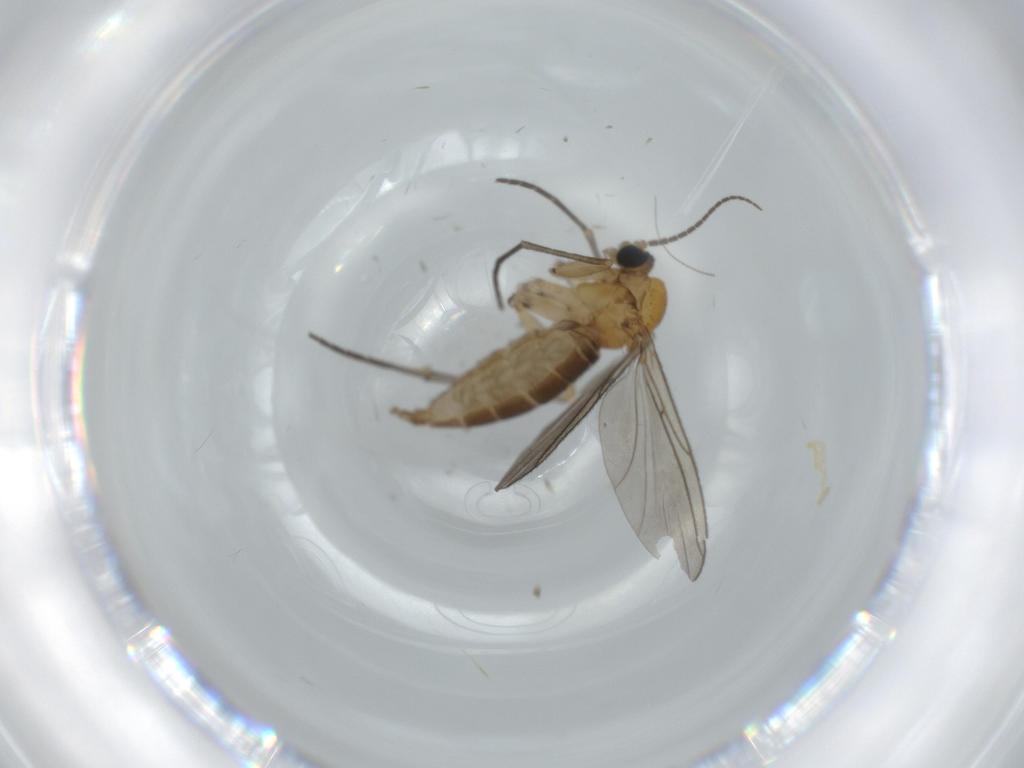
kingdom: Animalia
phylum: Arthropoda
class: Insecta
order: Diptera
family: Sciaridae
